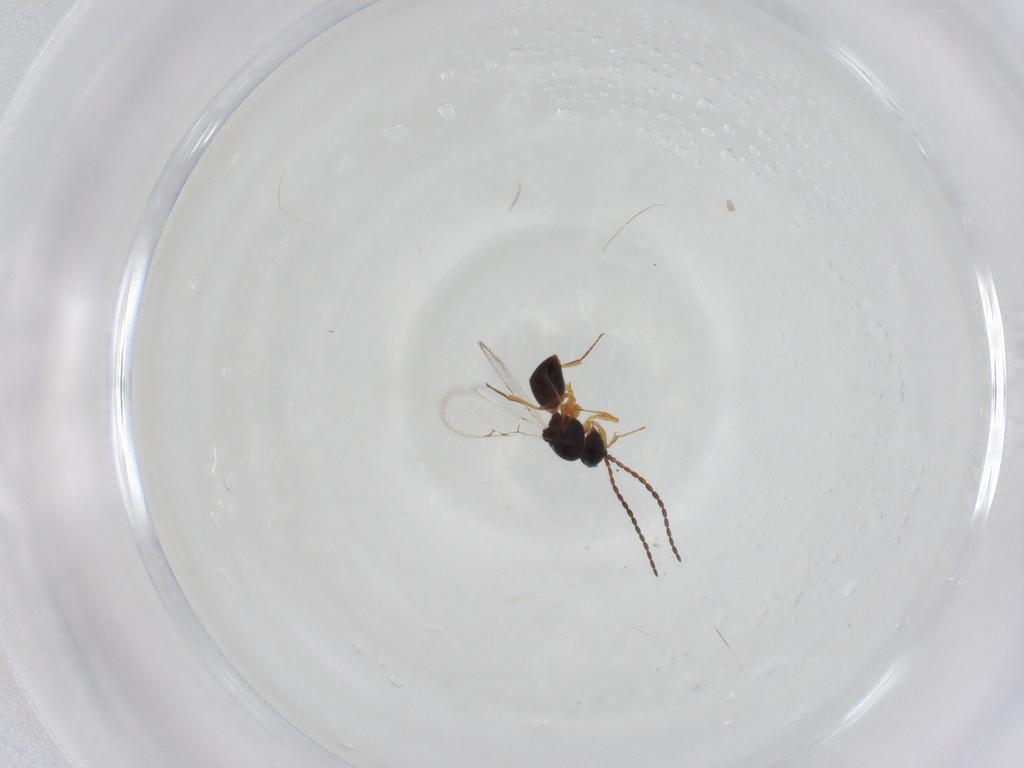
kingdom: Animalia
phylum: Arthropoda
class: Insecta
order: Hymenoptera
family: Figitidae
